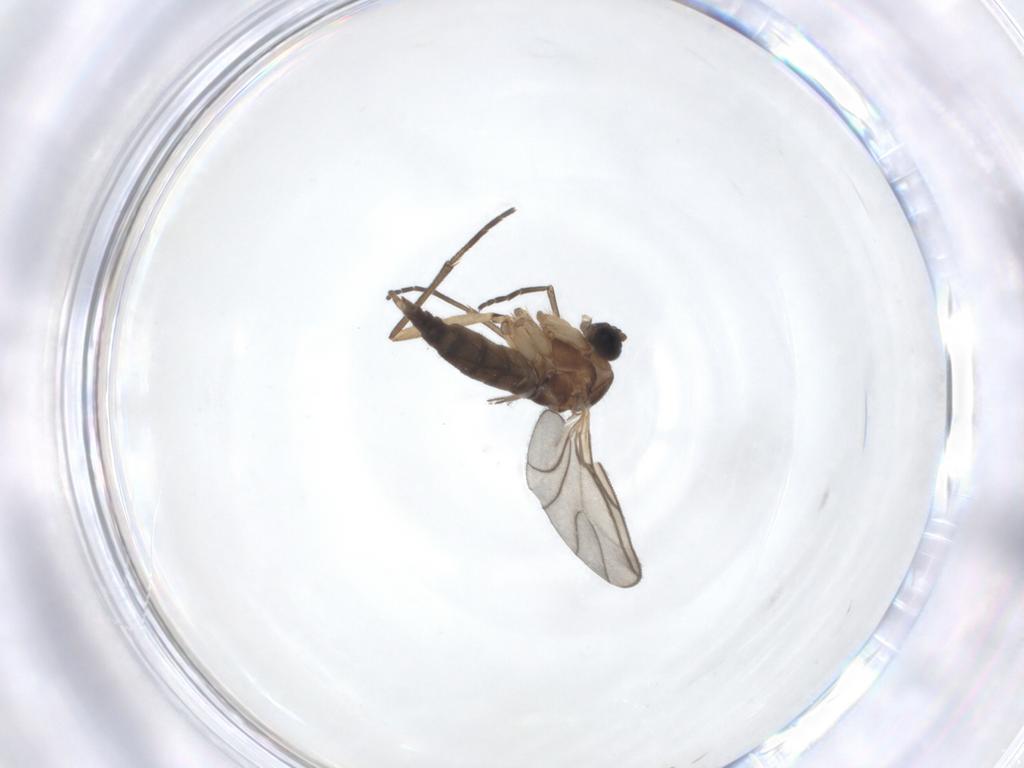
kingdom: Animalia
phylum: Arthropoda
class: Insecta
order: Diptera
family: Sciaridae
